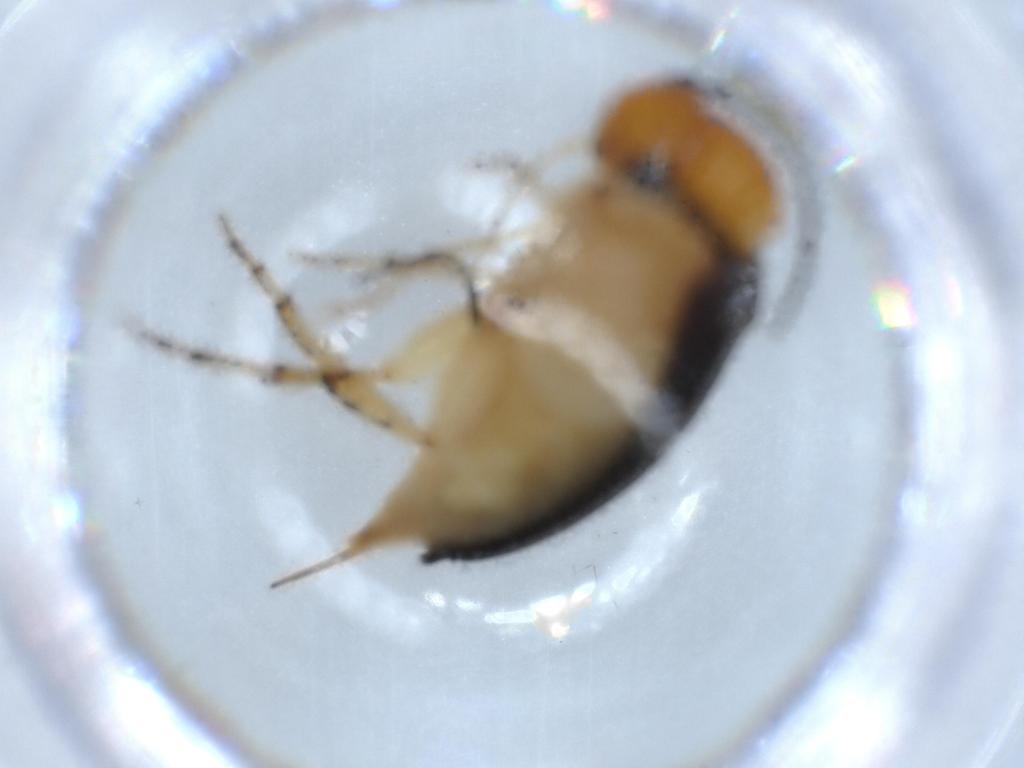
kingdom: Animalia
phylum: Arthropoda
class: Insecta
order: Coleoptera
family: Mordellidae
